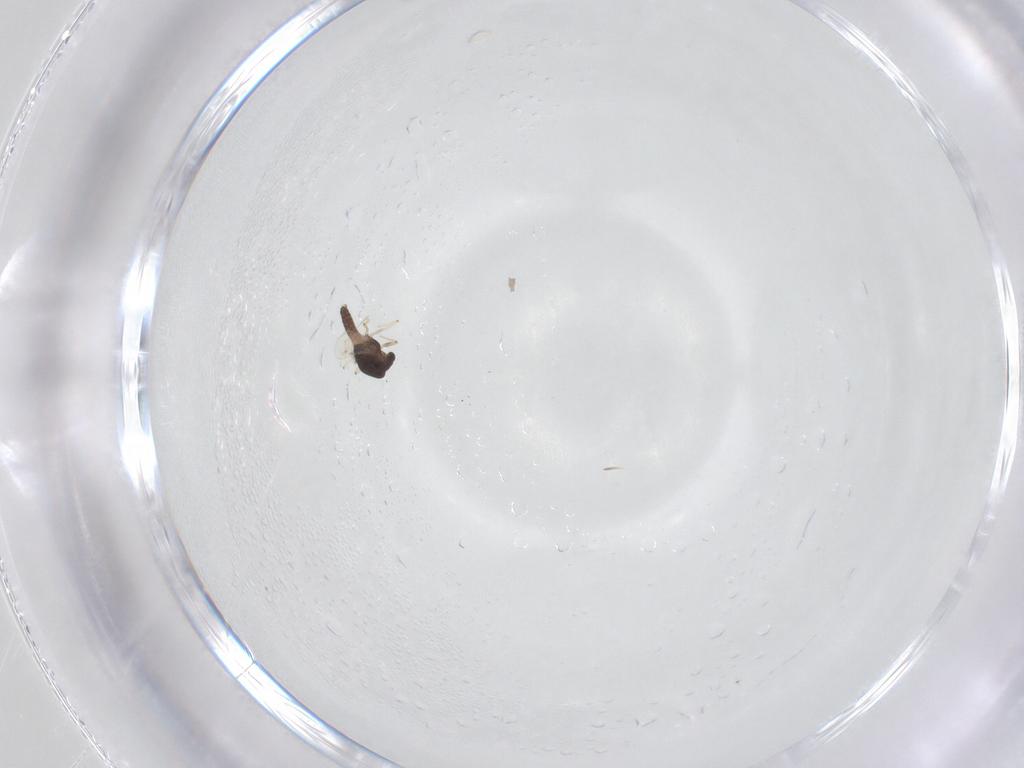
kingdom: Animalia
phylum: Arthropoda
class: Insecta
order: Diptera
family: Chironomidae
